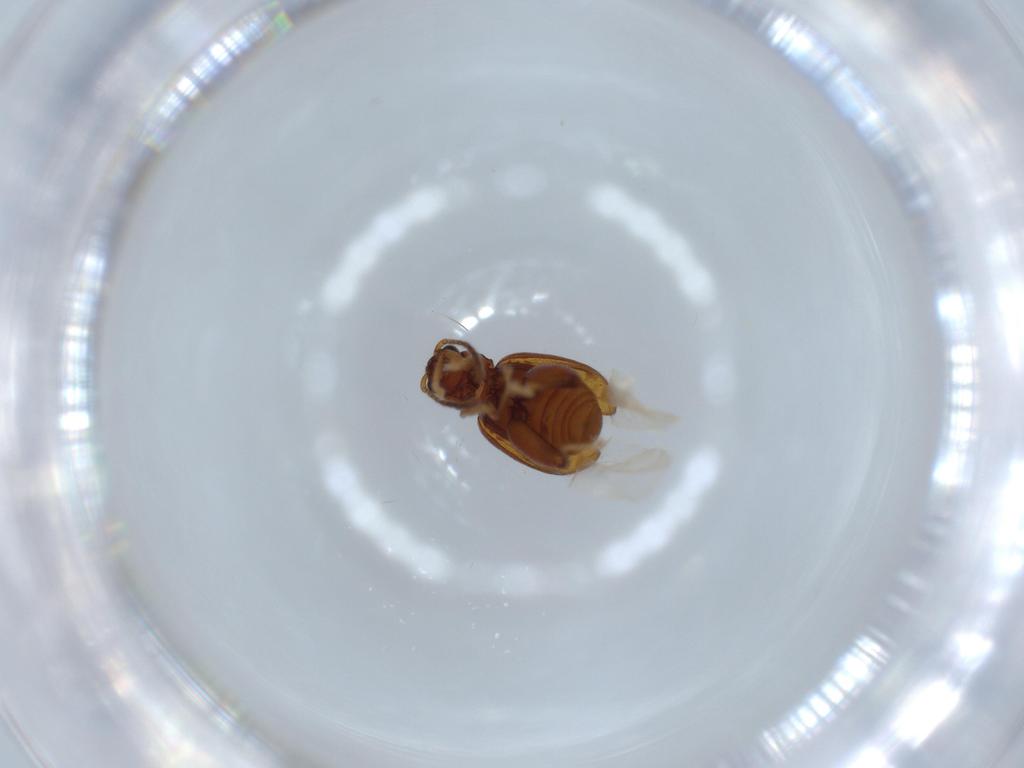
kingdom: Animalia
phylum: Arthropoda
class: Insecta
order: Coleoptera
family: Chrysomelidae
